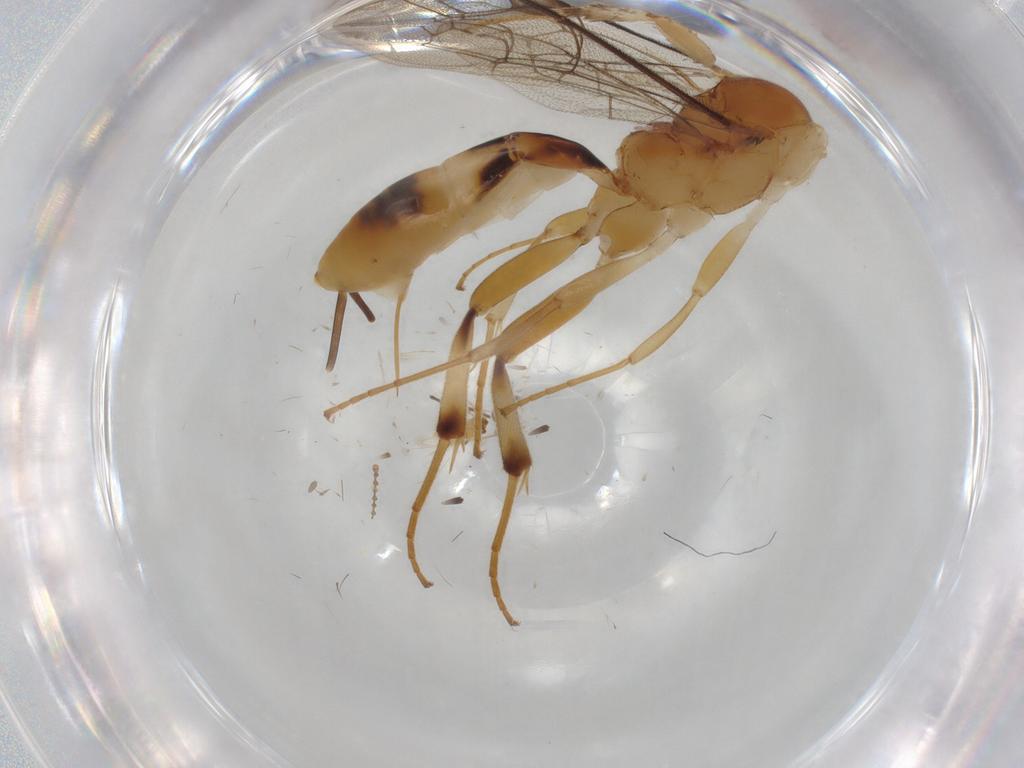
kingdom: Animalia
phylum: Arthropoda
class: Insecta
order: Hymenoptera
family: Ichneumonidae
